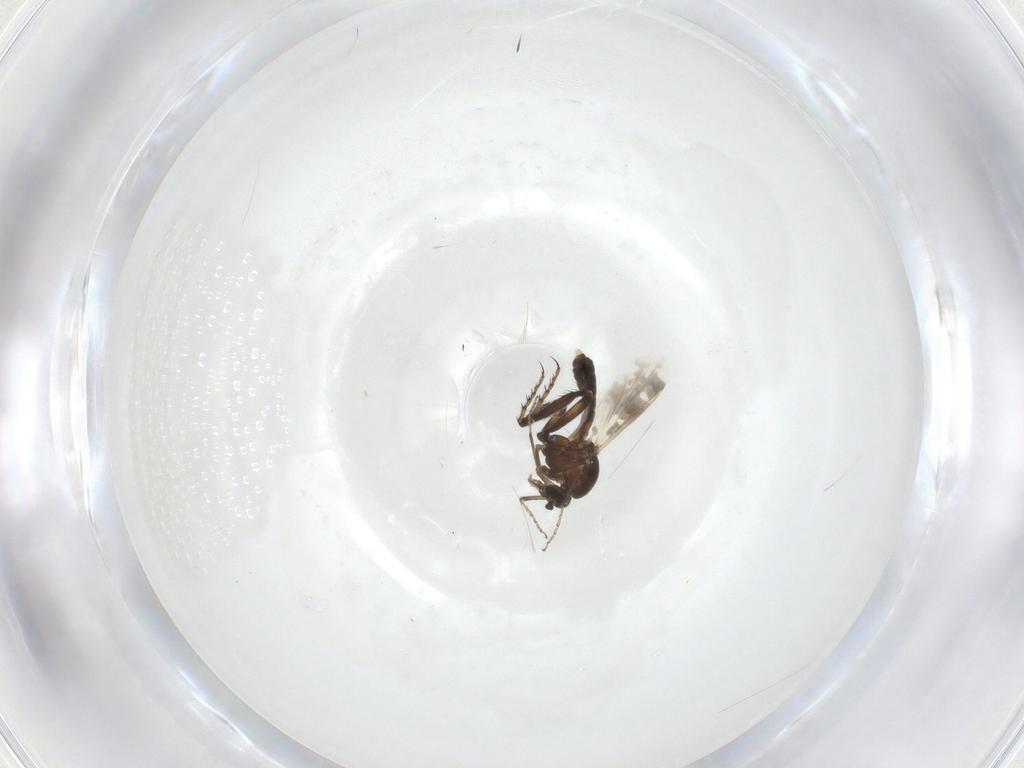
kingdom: Animalia
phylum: Arthropoda
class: Insecta
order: Diptera
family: Ceratopogonidae
